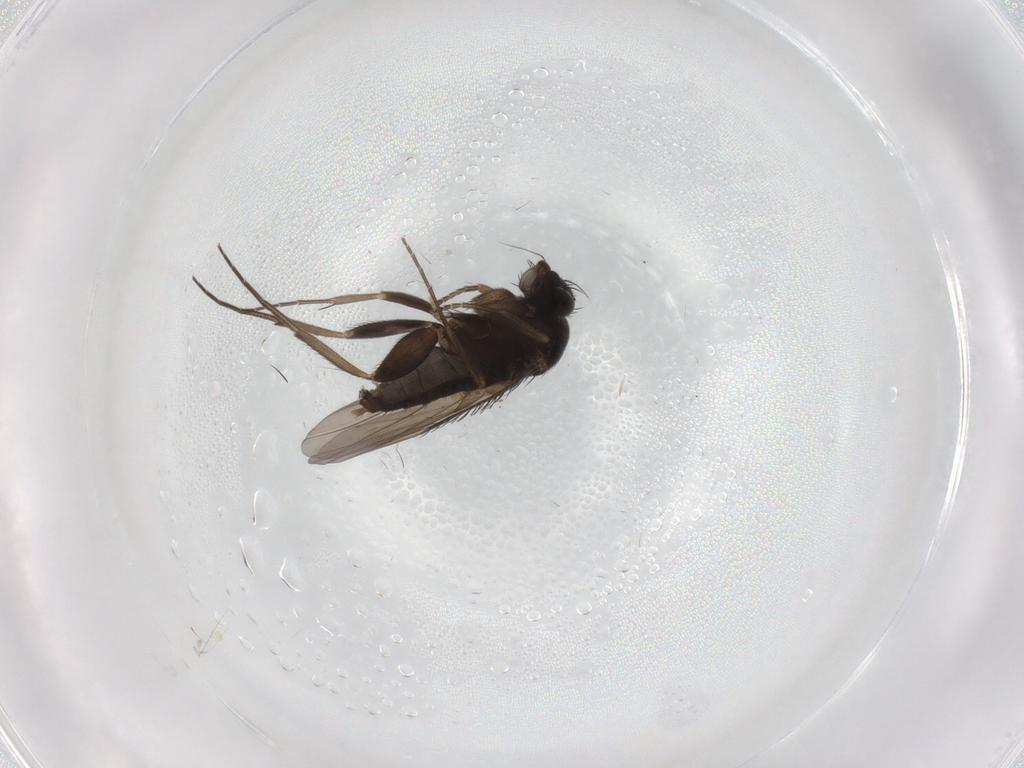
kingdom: Animalia
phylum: Arthropoda
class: Insecta
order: Diptera
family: Phoridae
